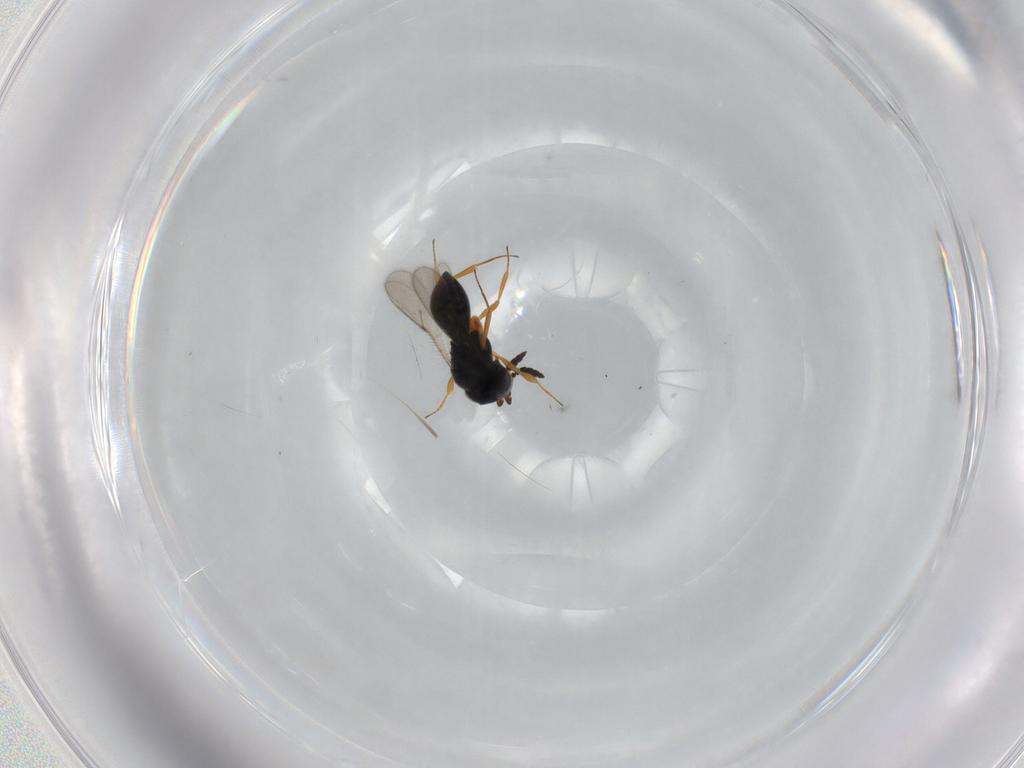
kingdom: Animalia
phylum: Arthropoda
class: Insecta
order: Hymenoptera
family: Scelionidae
